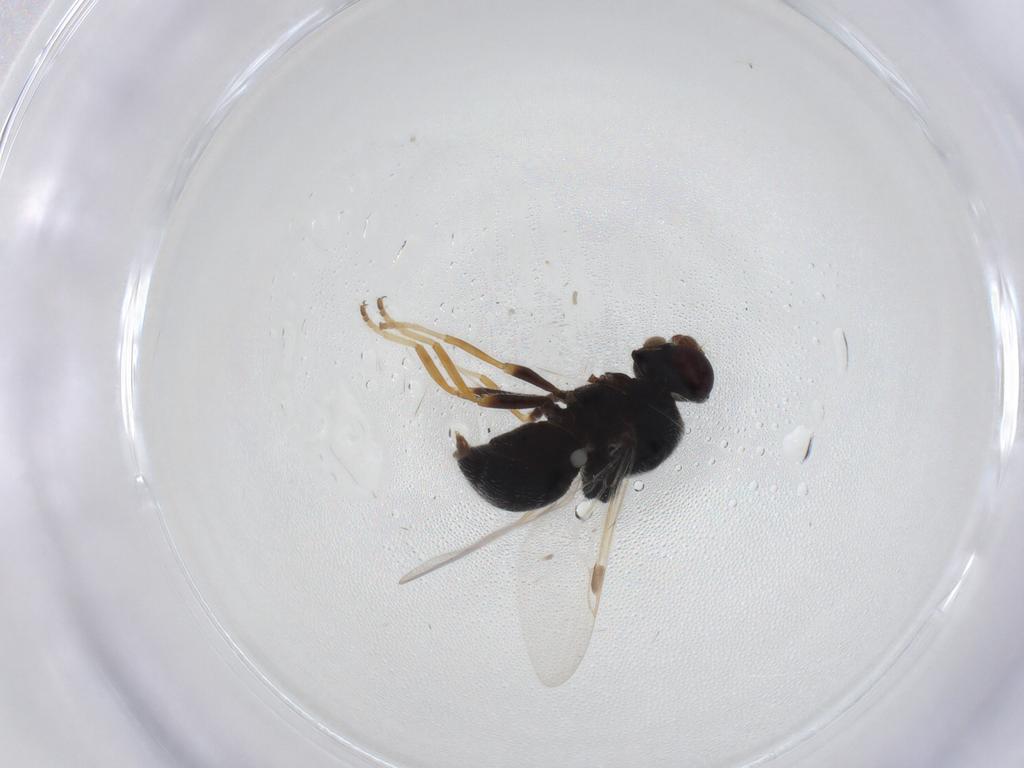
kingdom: Animalia
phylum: Arthropoda
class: Insecta
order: Diptera
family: Stratiomyidae
